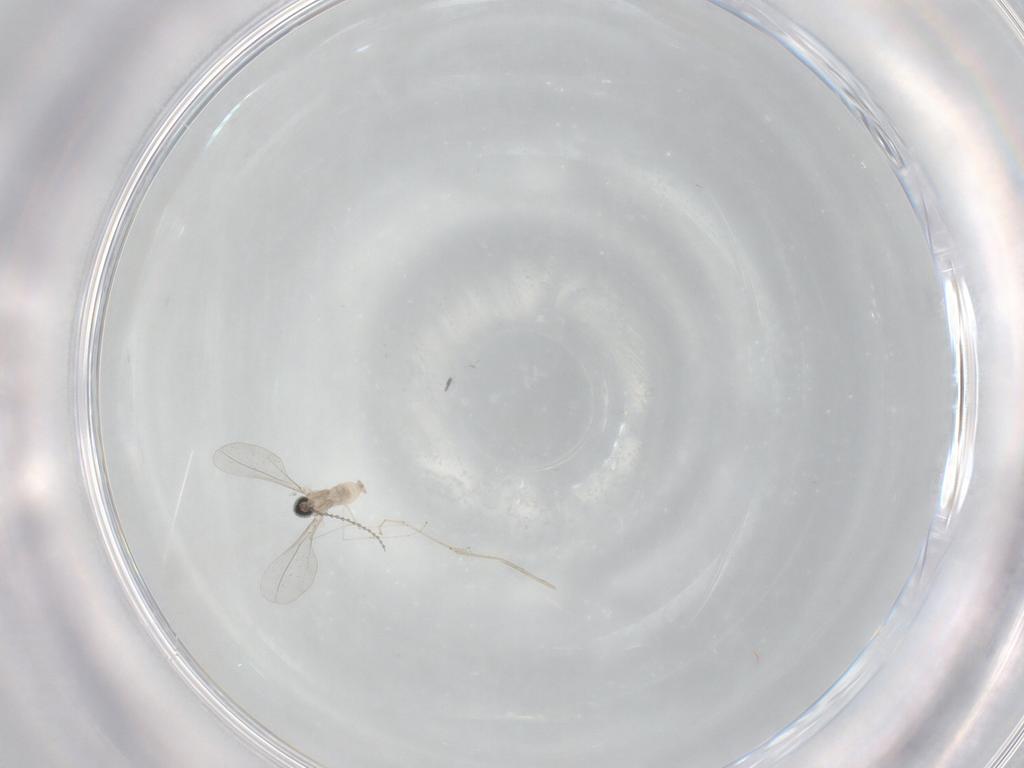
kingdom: Animalia
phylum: Arthropoda
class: Insecta
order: Diptera
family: Cecidomyiidae
